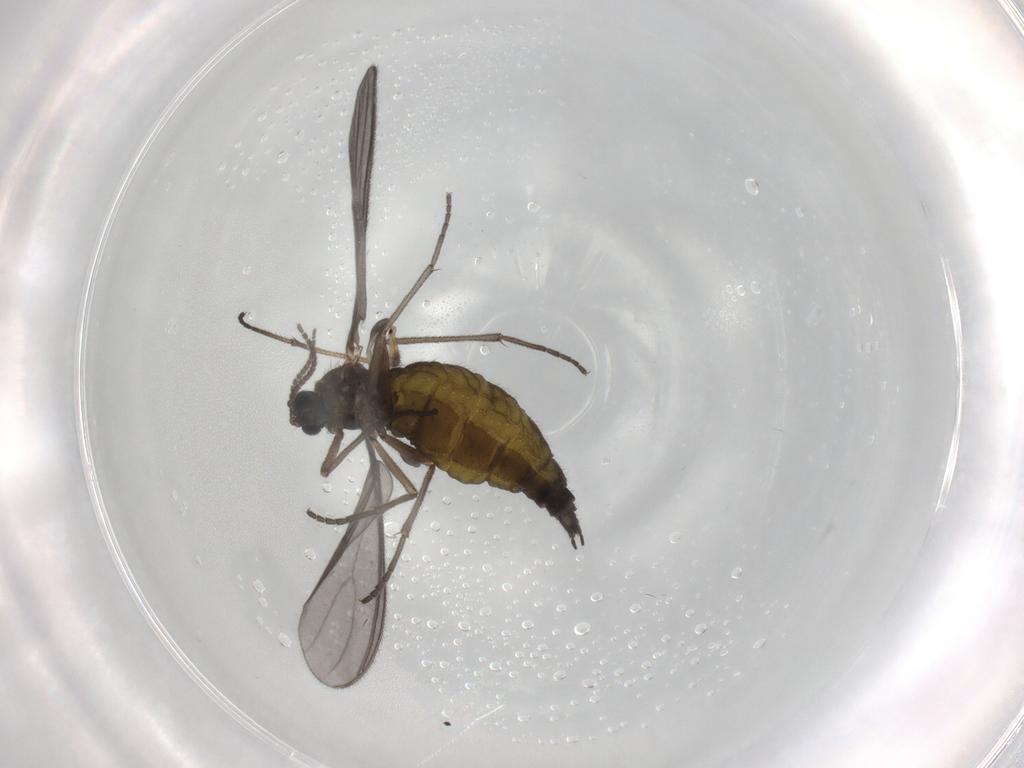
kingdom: Animalia
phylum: Arthropoda
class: Insecta
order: Diptera
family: Sciaridae
